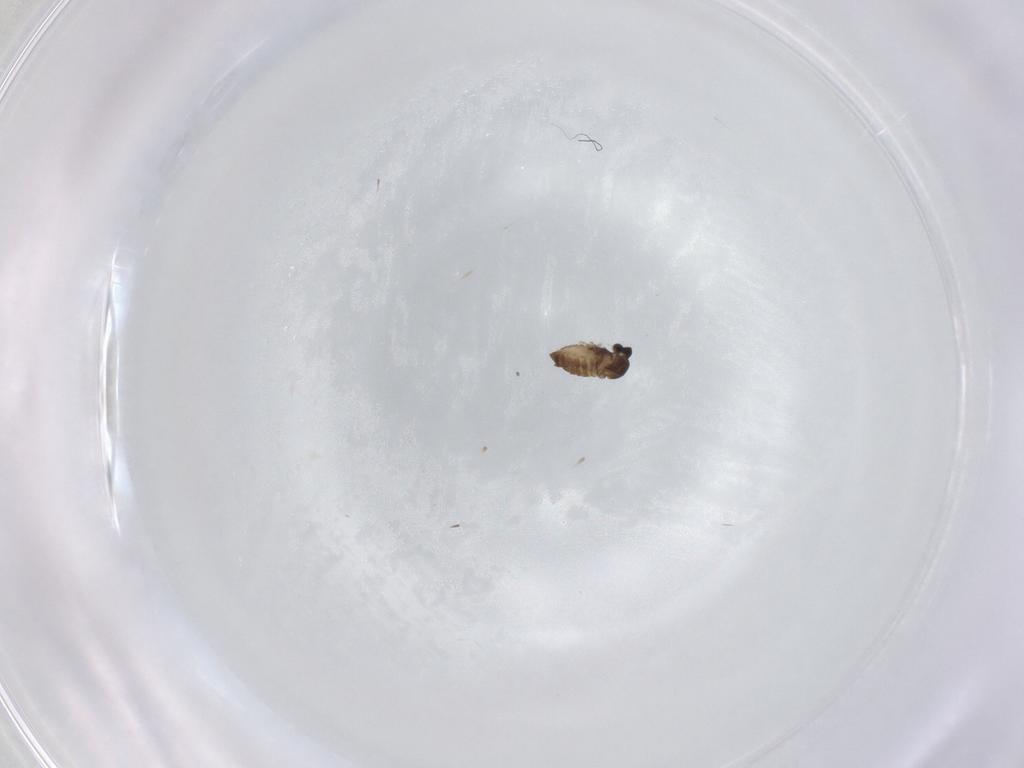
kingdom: Animalia
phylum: Arthropoda
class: Insecta
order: Diptera
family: Cecidomyiidae
